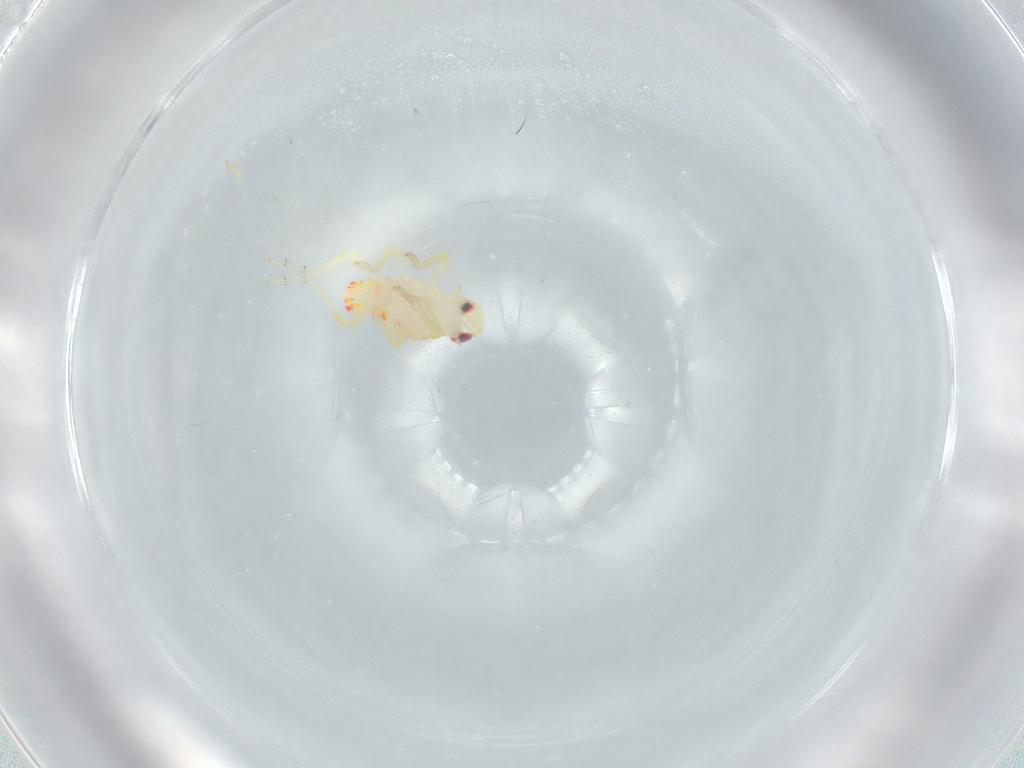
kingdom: Animalia
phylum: Arthropoda
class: Insecta
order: Hemiptera
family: Tropiduchidae
